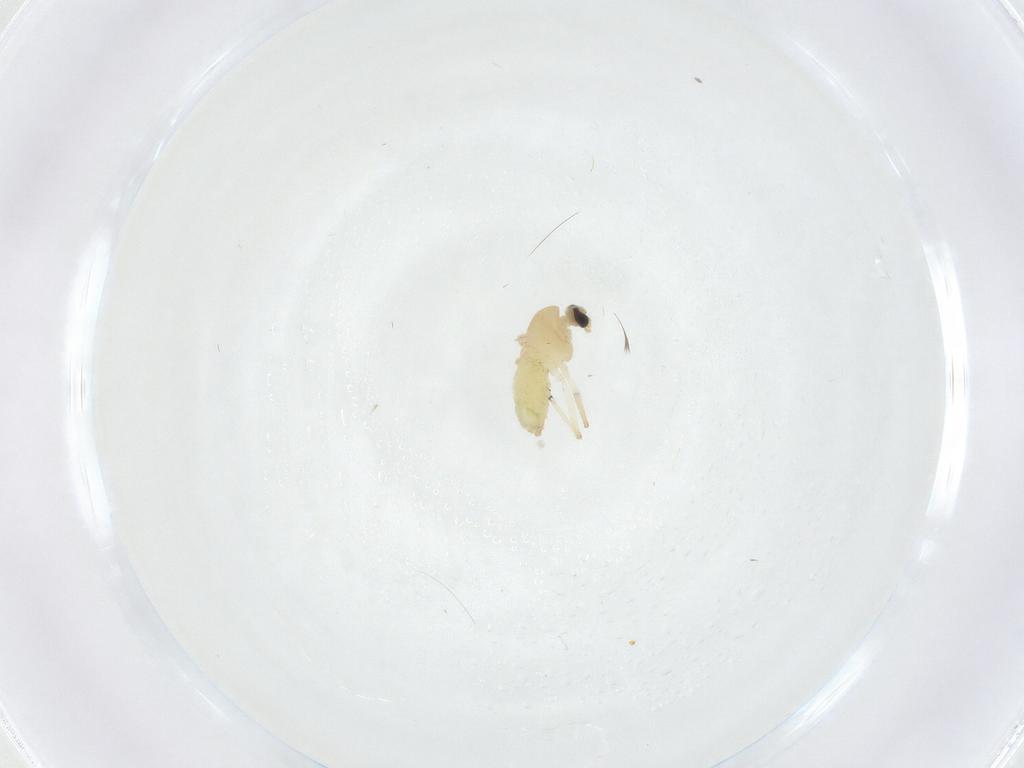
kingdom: Animalia
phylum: Arthropoda
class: Insecta
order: Diptera
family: Chironomidae
